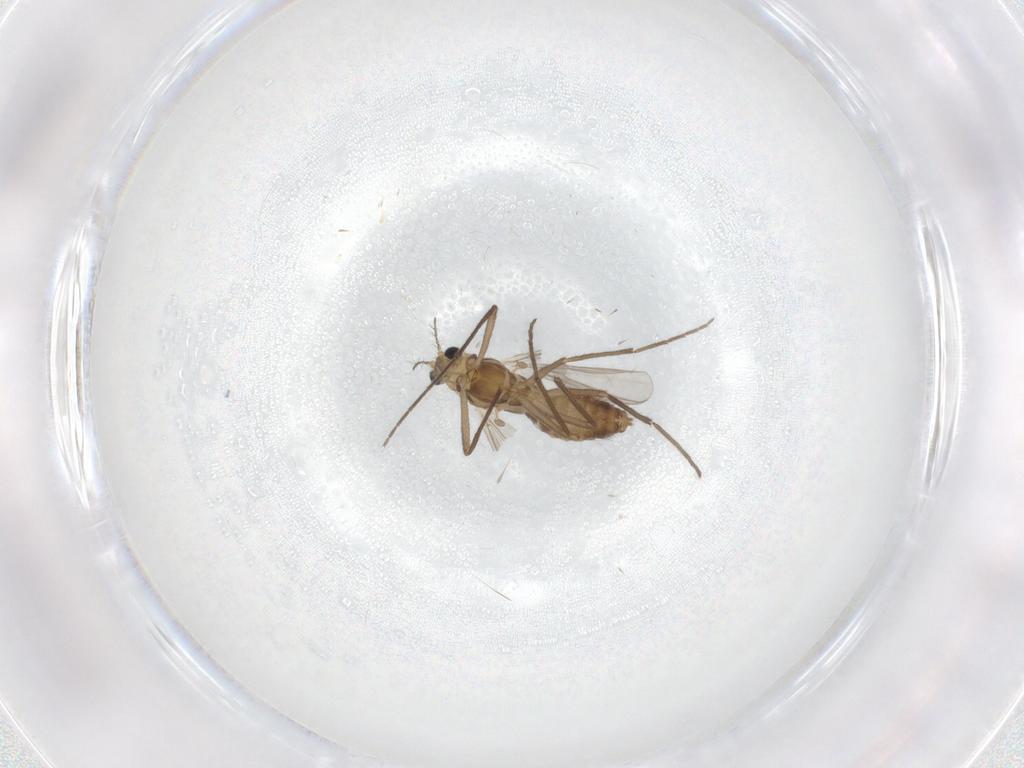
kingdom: Animalia
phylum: Arthropoda
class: Insecta
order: Diptera
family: Chironomidae
